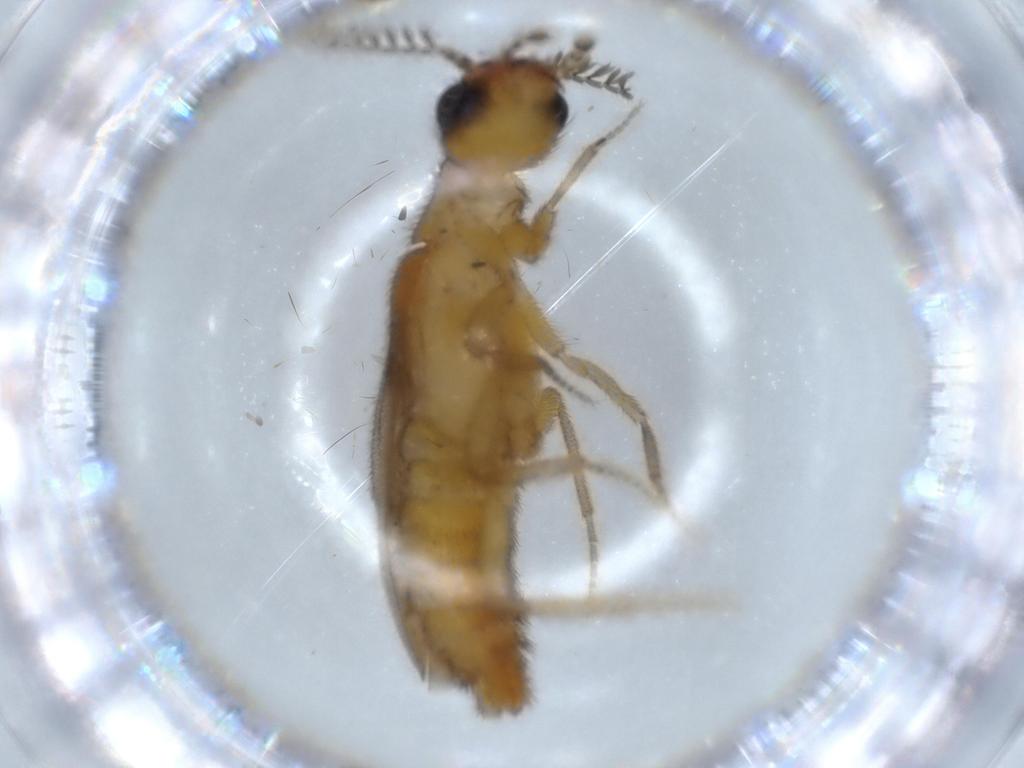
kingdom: Animalia
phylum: Arthropoda
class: Insecta
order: Coleoptera
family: Curculionidae
